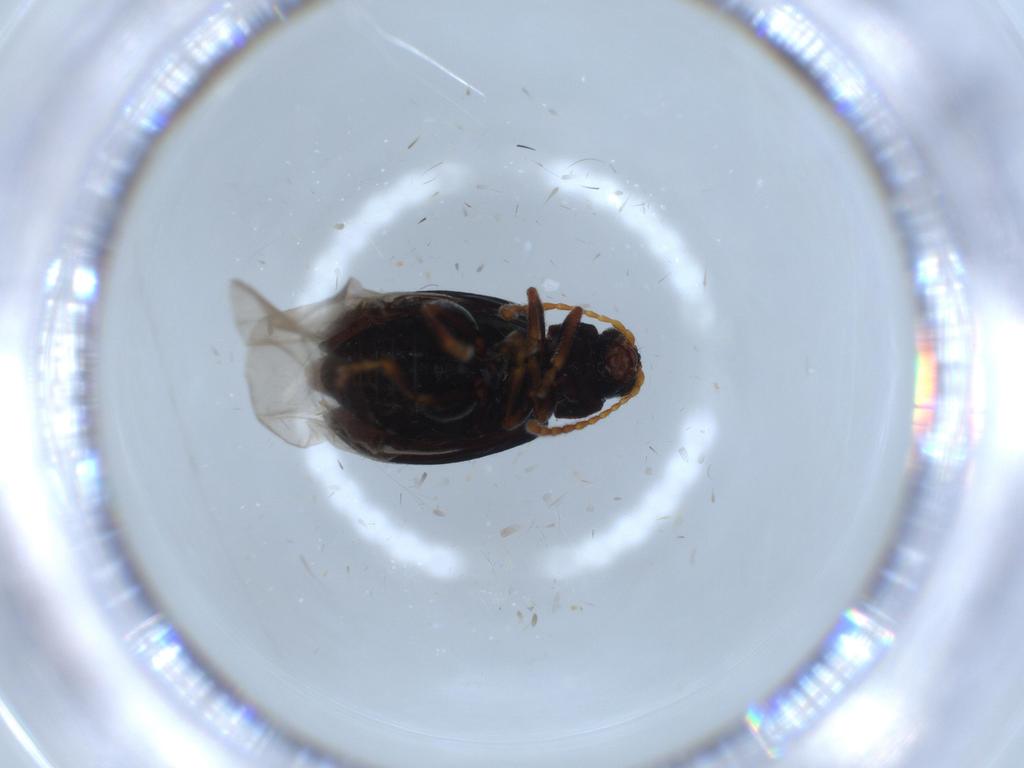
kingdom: Animalia
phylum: Arthropoda
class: Insecta
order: Coleoptera
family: Chrysomelidae
